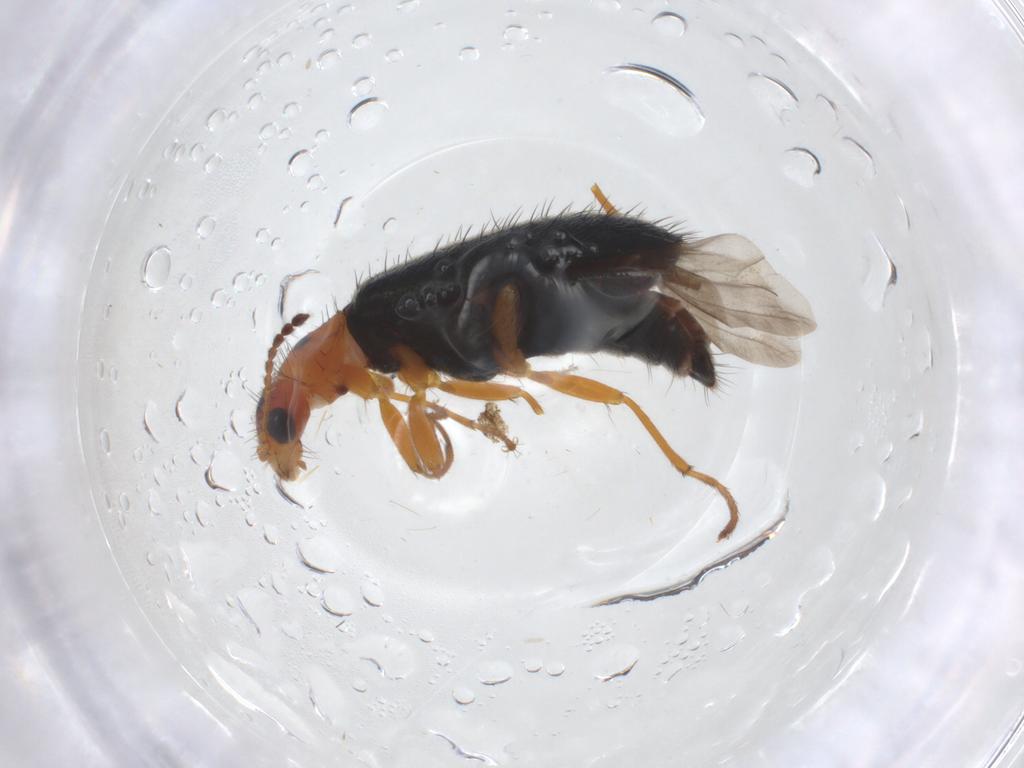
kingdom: Animalia
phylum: Arthropoda
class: Insecta
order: Coleoptera
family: Melyridae
